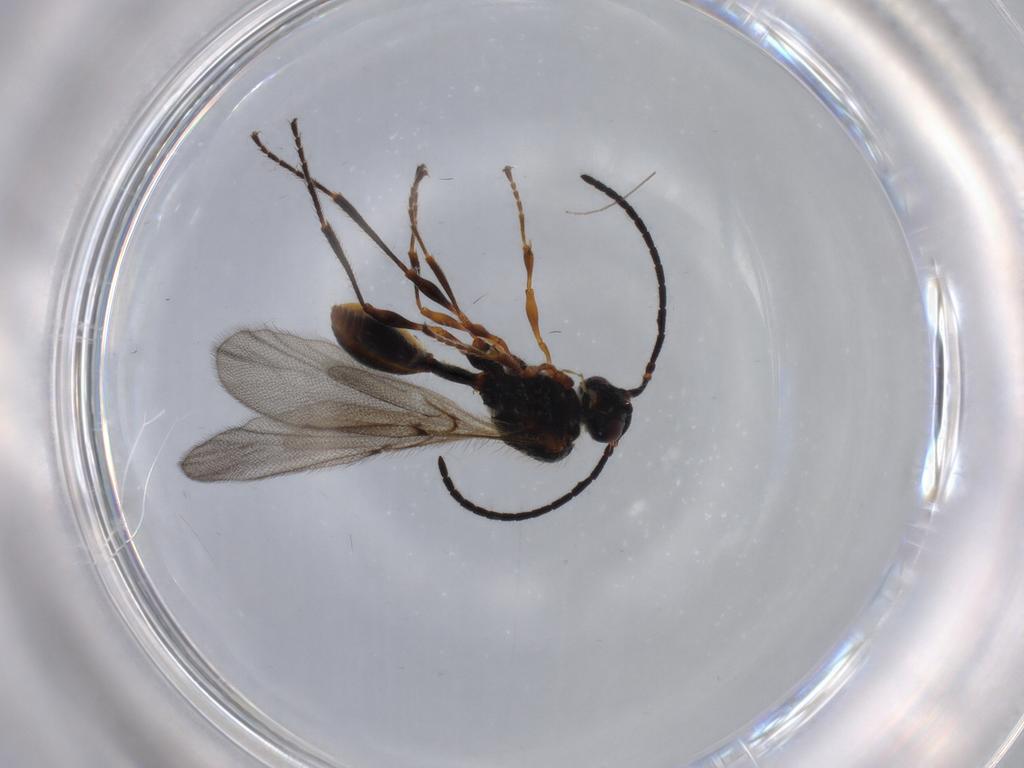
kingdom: Animalia
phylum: Arthropoda
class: Insecta
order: Hymenoptera
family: Diapriidae
